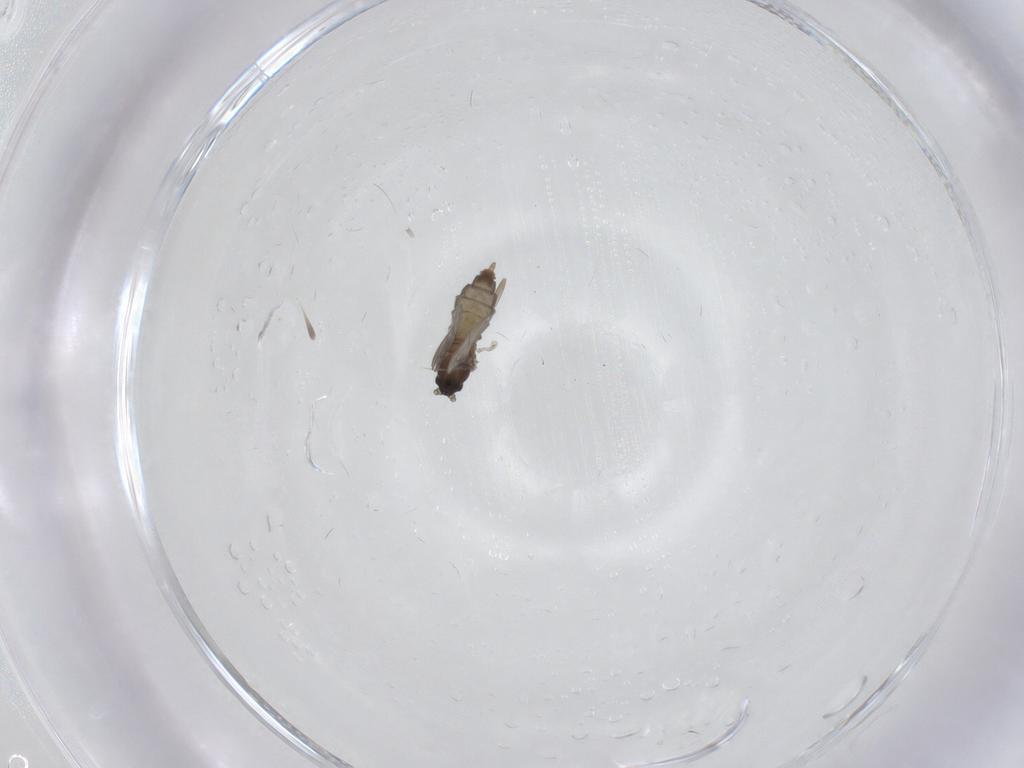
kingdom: Animalia
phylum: Arthropoda
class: Insecta
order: Diptera
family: Cecidomyiidae
